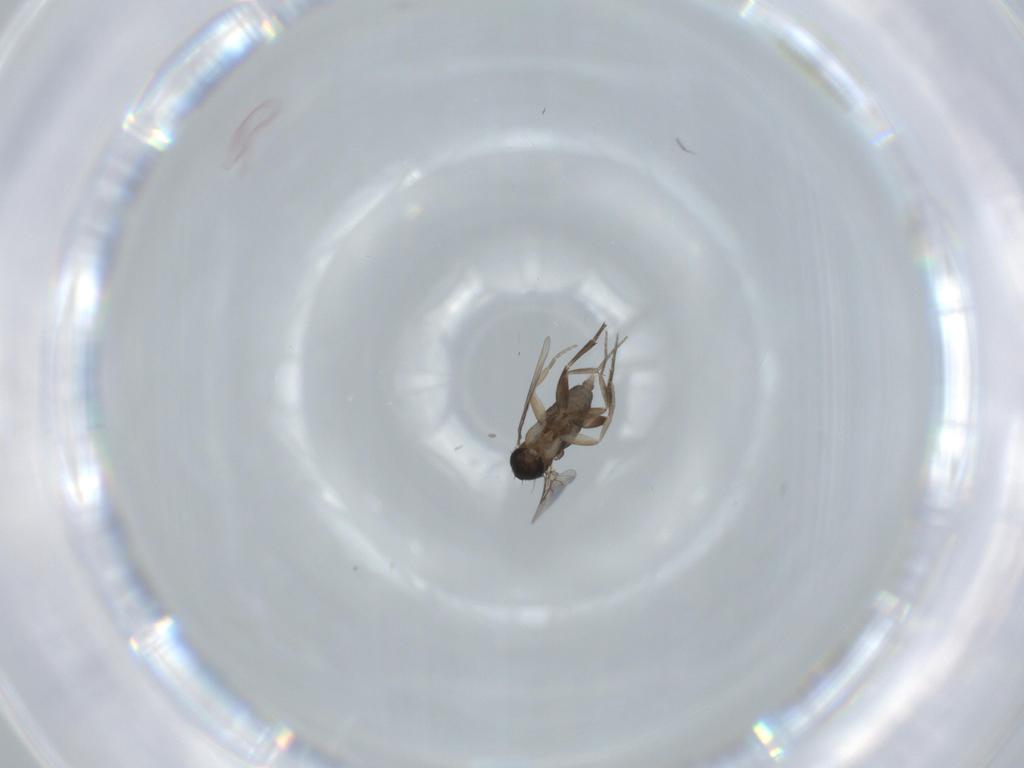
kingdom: Animalia
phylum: Arthropoda
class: Insecta
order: Diptera
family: Phoridae
